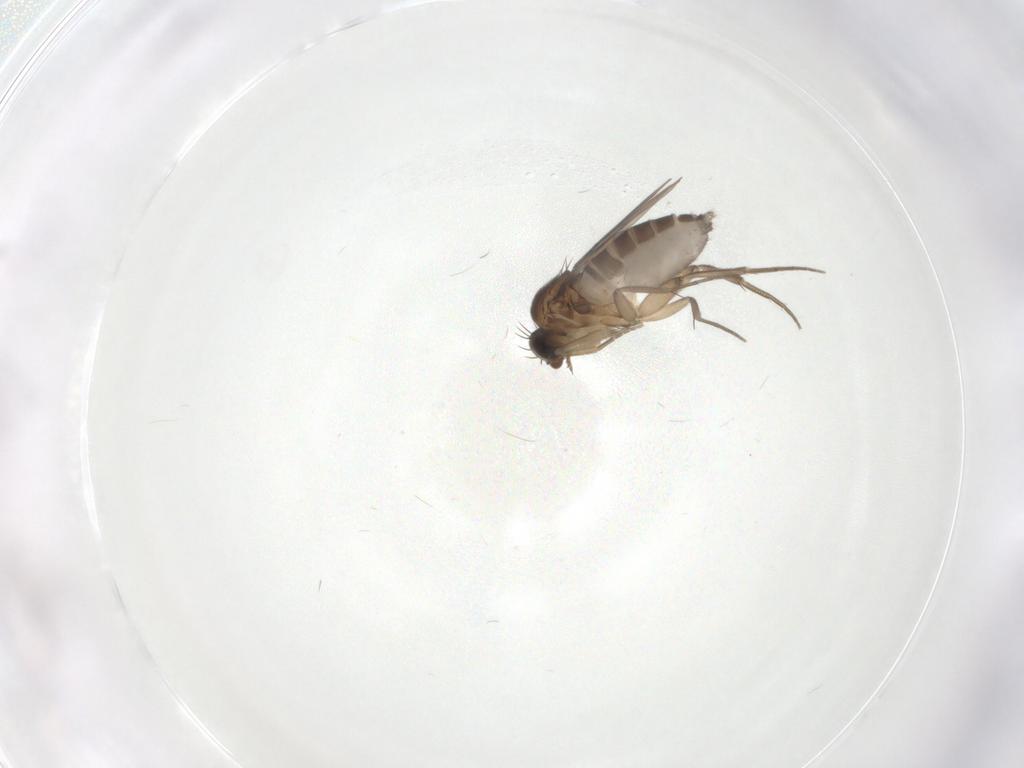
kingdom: Animalia
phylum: Arthropoda
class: Insecta
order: Diptera
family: Phoridae
